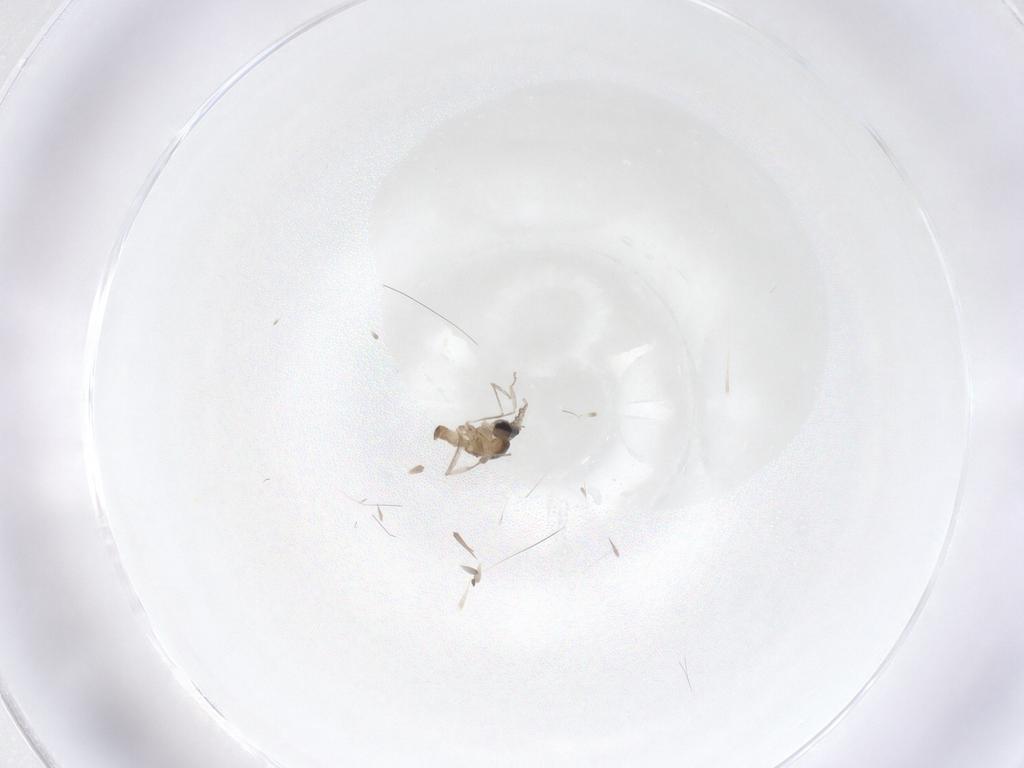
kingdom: Animalia
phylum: Arthropoda
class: Insecta
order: Diptera
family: Cecidomyiidae
